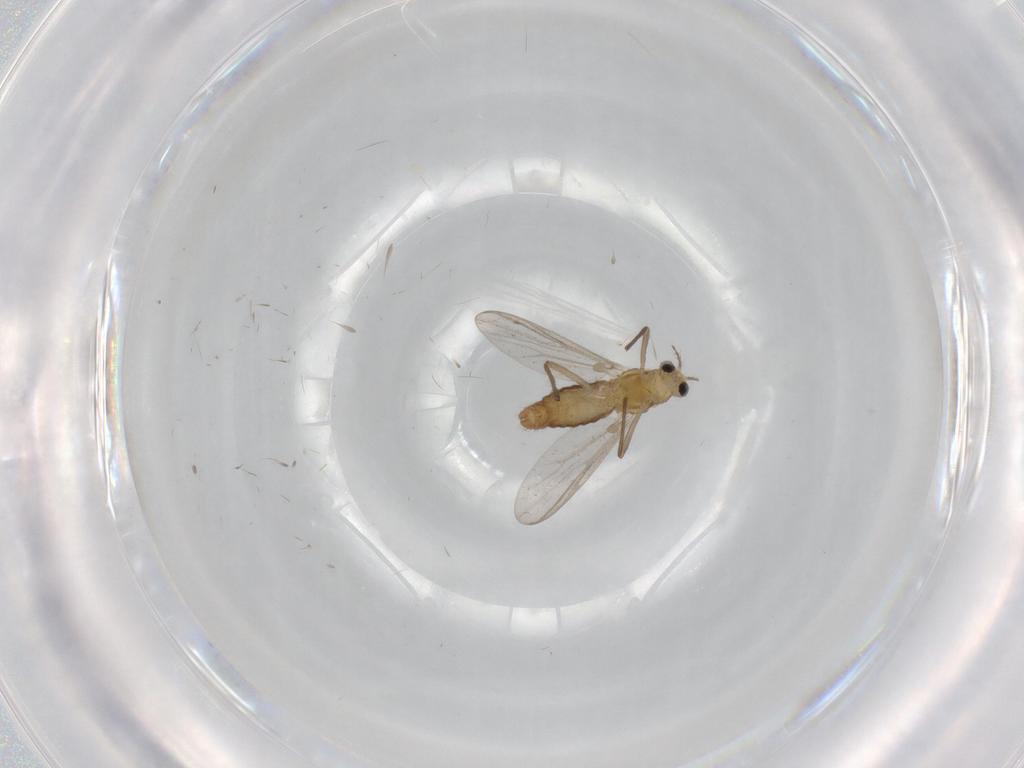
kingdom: Animalia
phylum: Arthropoda
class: Insecta
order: Diptera
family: Chironomidae
